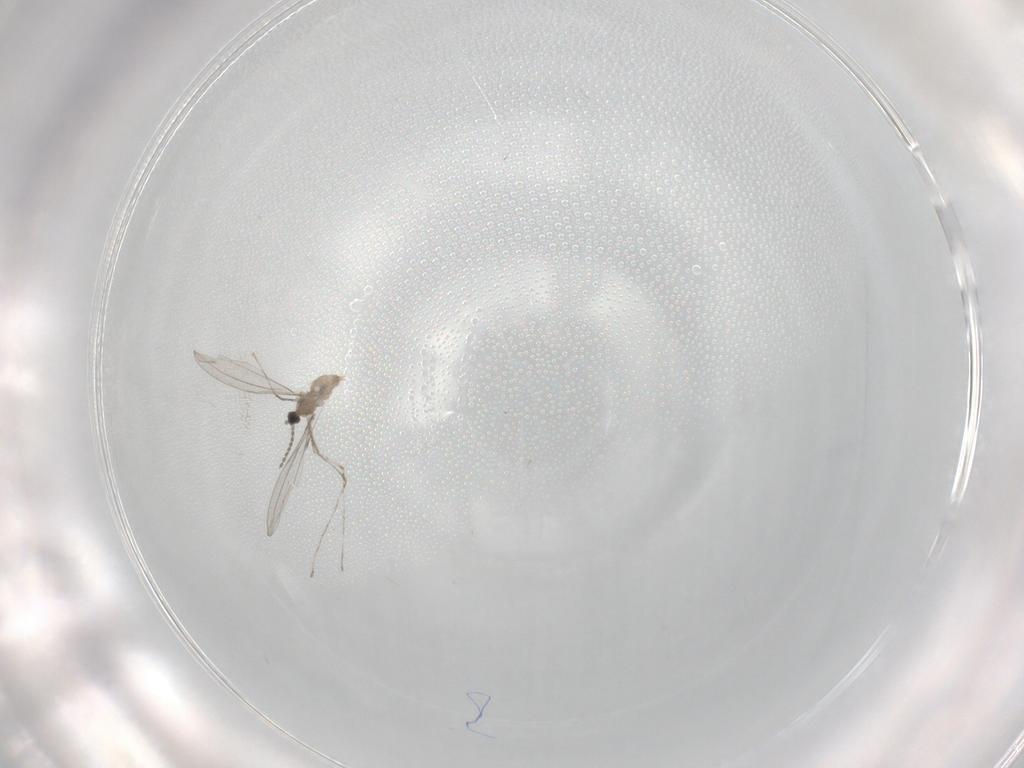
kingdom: Animalia
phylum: Arthropoda
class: Insecta
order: Diptera
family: Cecidomyiidae
